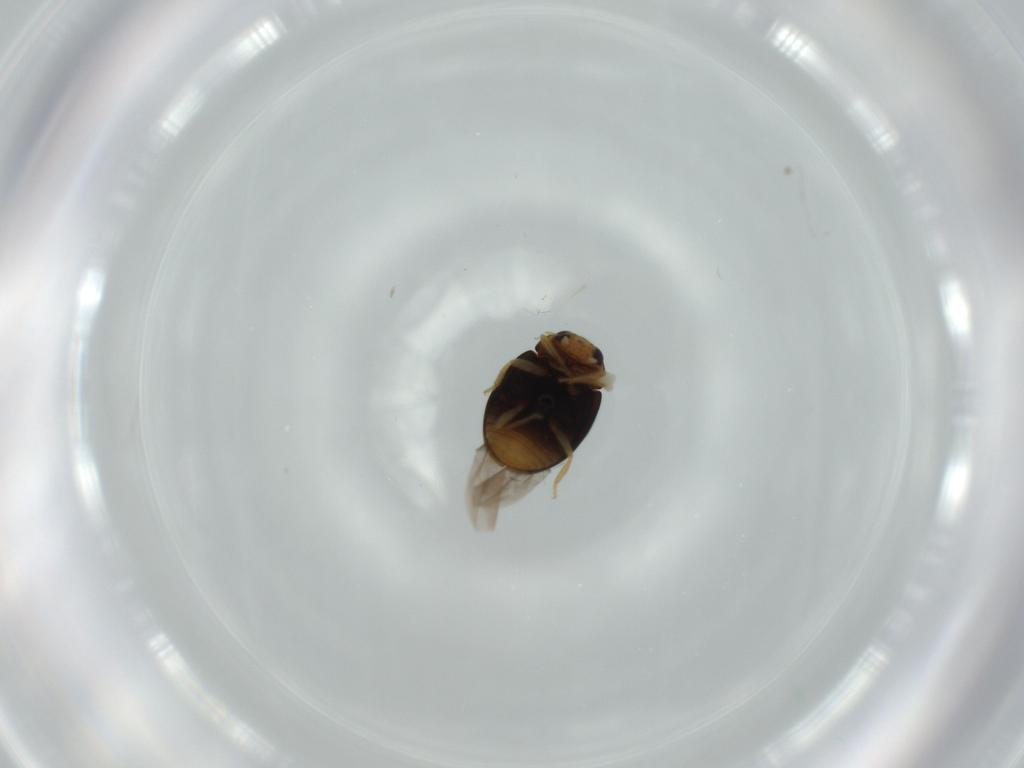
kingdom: Animalia
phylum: Arthropoda
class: Insecta
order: Coleoptera
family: Coccinellidae
